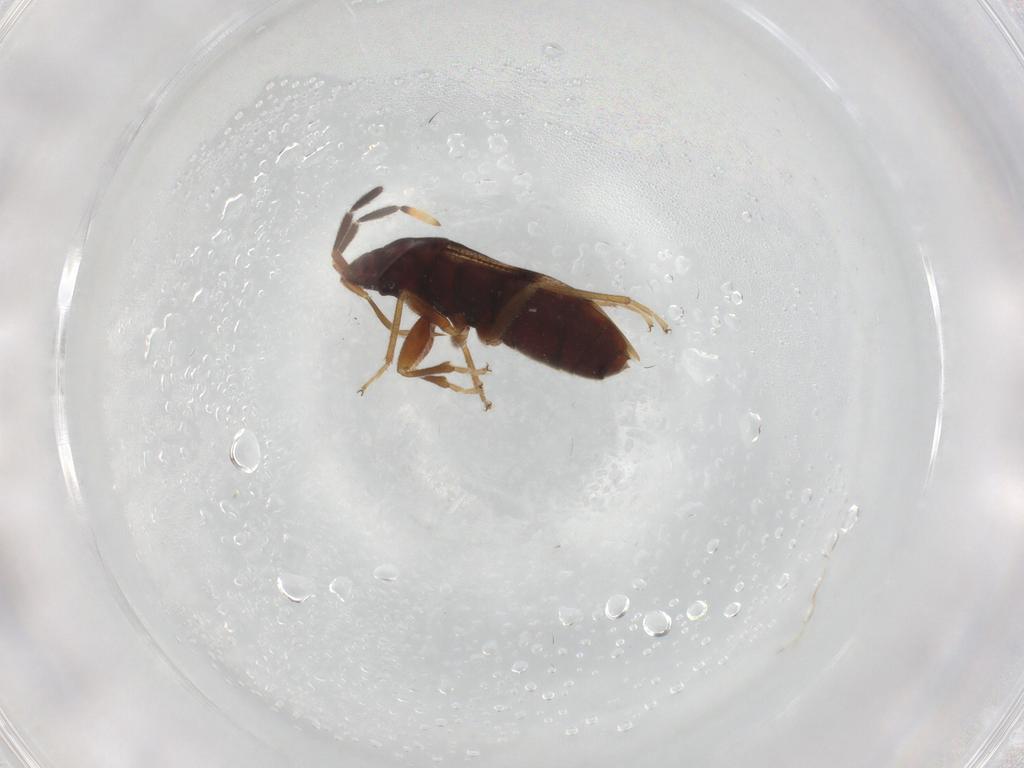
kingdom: Animalia
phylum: Arthropoda
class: Insecta
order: Hemiptera
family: Rhyparochromidae
